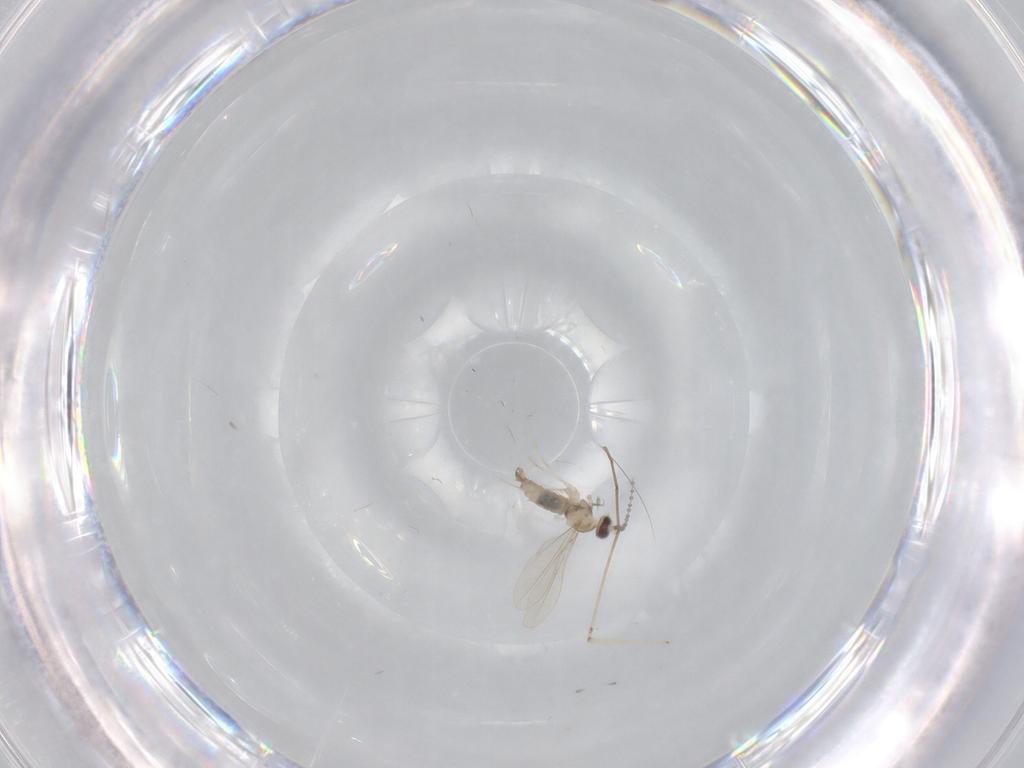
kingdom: Animalia
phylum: Arthropoda
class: Insecta
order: Diptera
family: Cecidomyiidae
